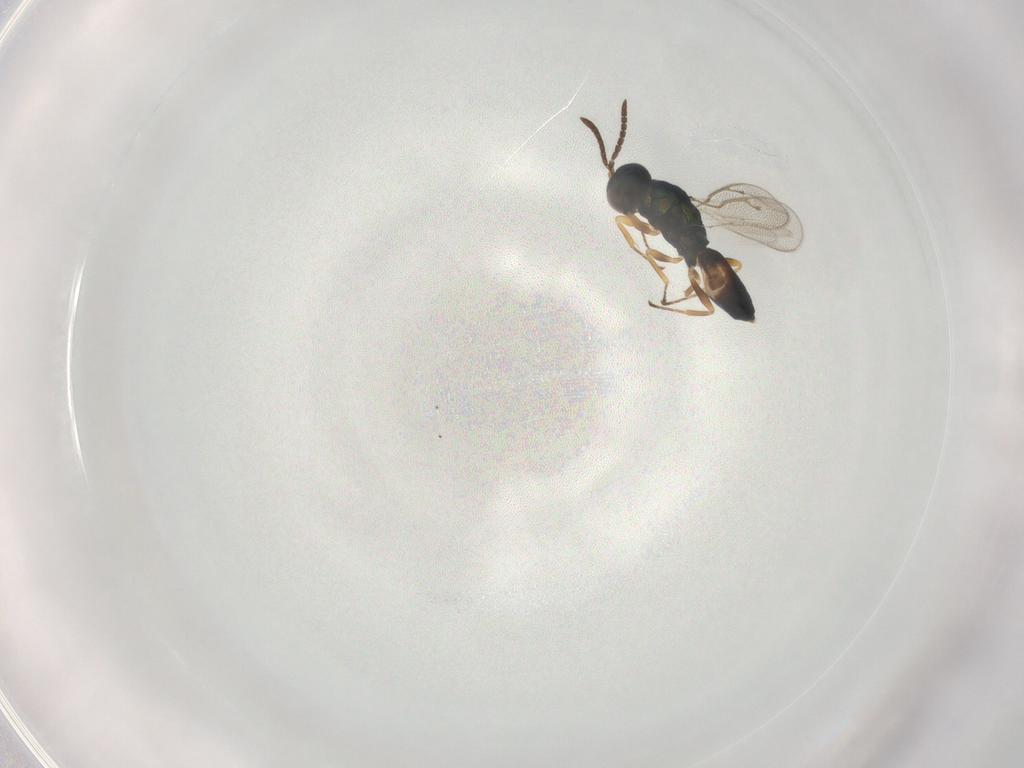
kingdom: Animalia
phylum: Arthropoda
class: Insecta
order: Hymenoptera
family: Pteromalidae
